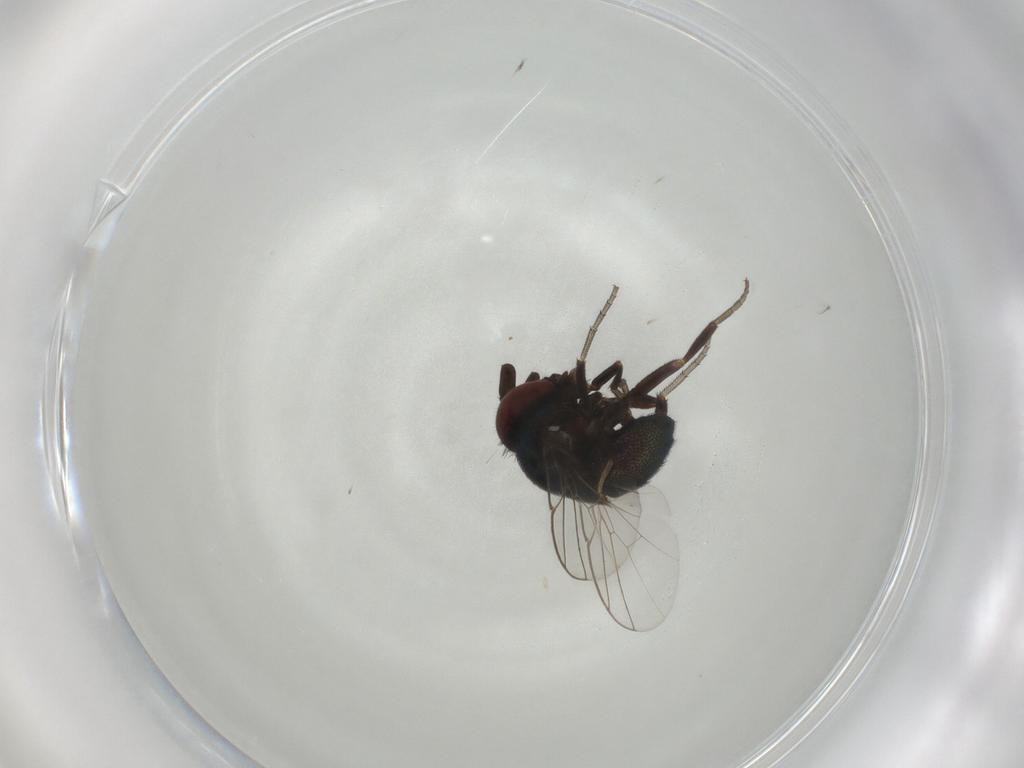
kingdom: Animalia
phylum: Arthropoda
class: Insecta
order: Diptera
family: Cryptochetidae
